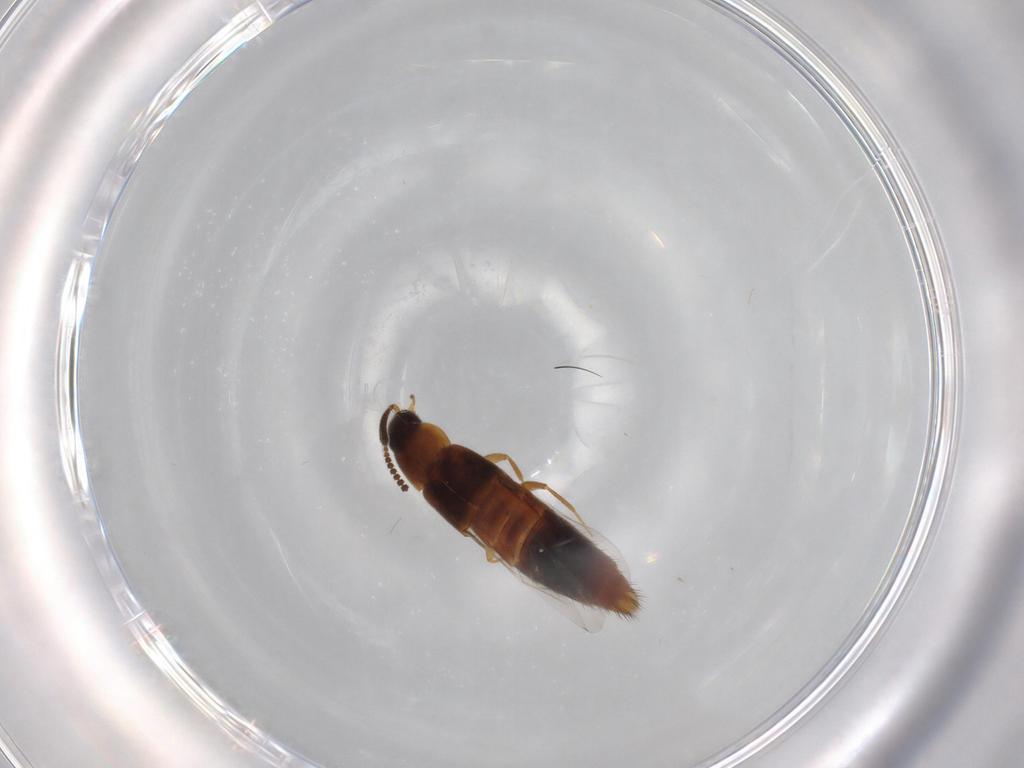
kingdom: Animalia
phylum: Arthropoda
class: Insecta
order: Coleoptera
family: Staphylinidae
